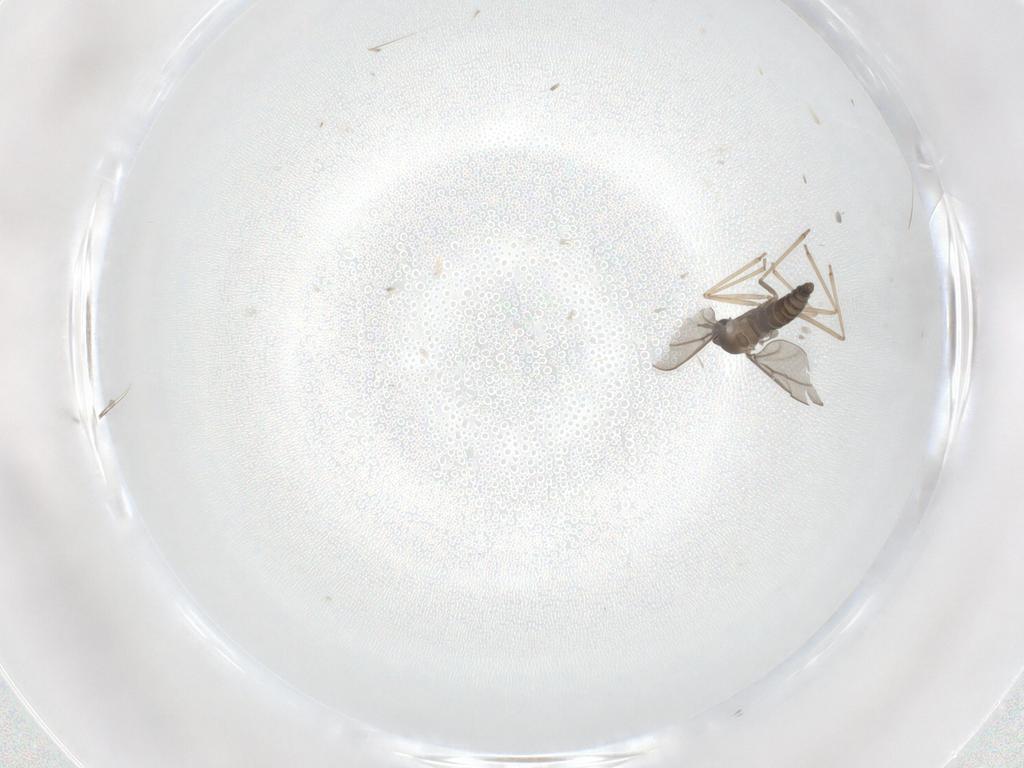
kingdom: Animalia
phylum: Arthropoda
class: Insecta
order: Diptera
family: Cecidomyiidae
